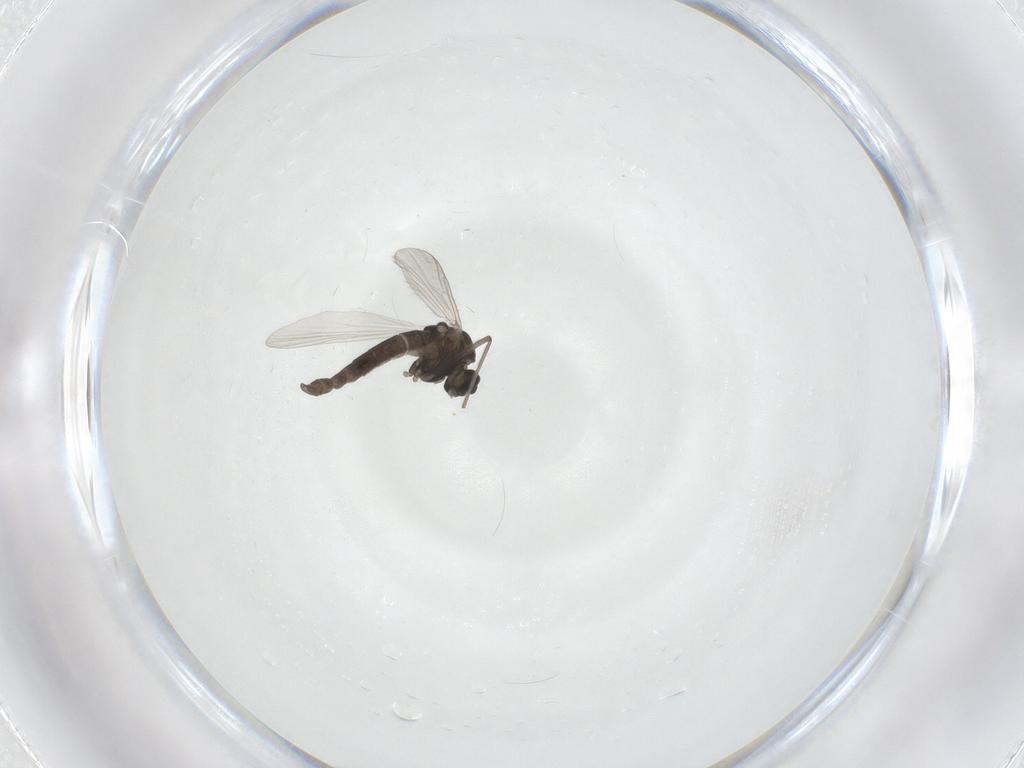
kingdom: Animalia
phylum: Arthropoda
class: Insecta
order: Diptera
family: Chironomidae
